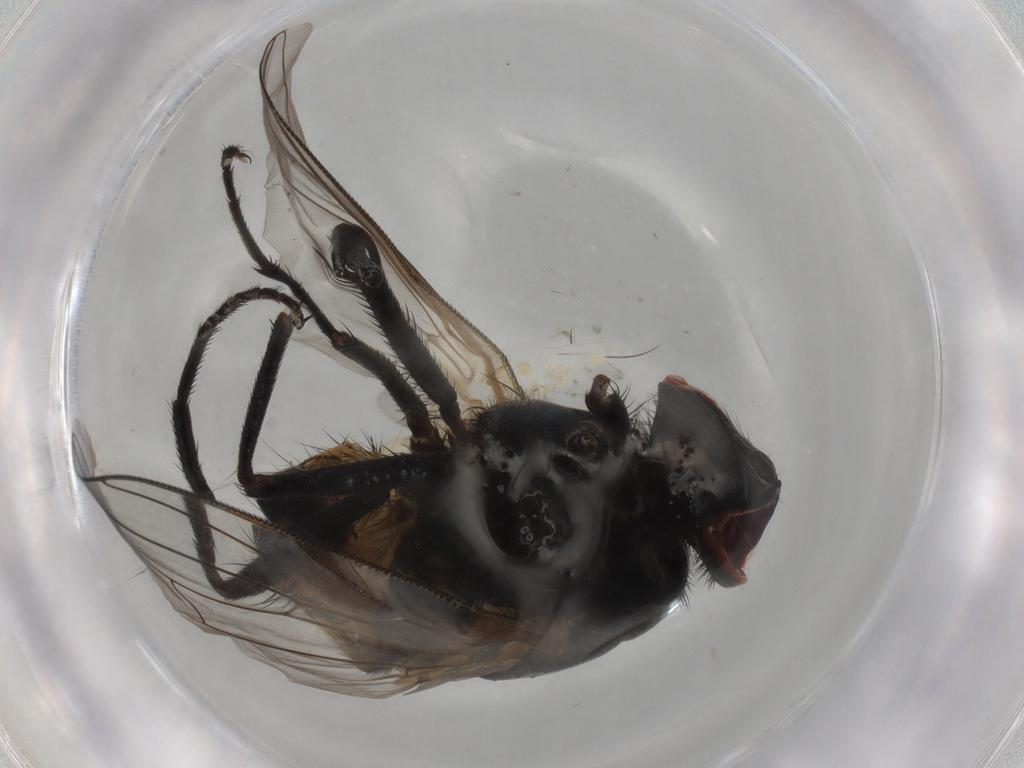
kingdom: Animalia
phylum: Arthropoda
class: Insecta
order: Diptera
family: Muscidae
